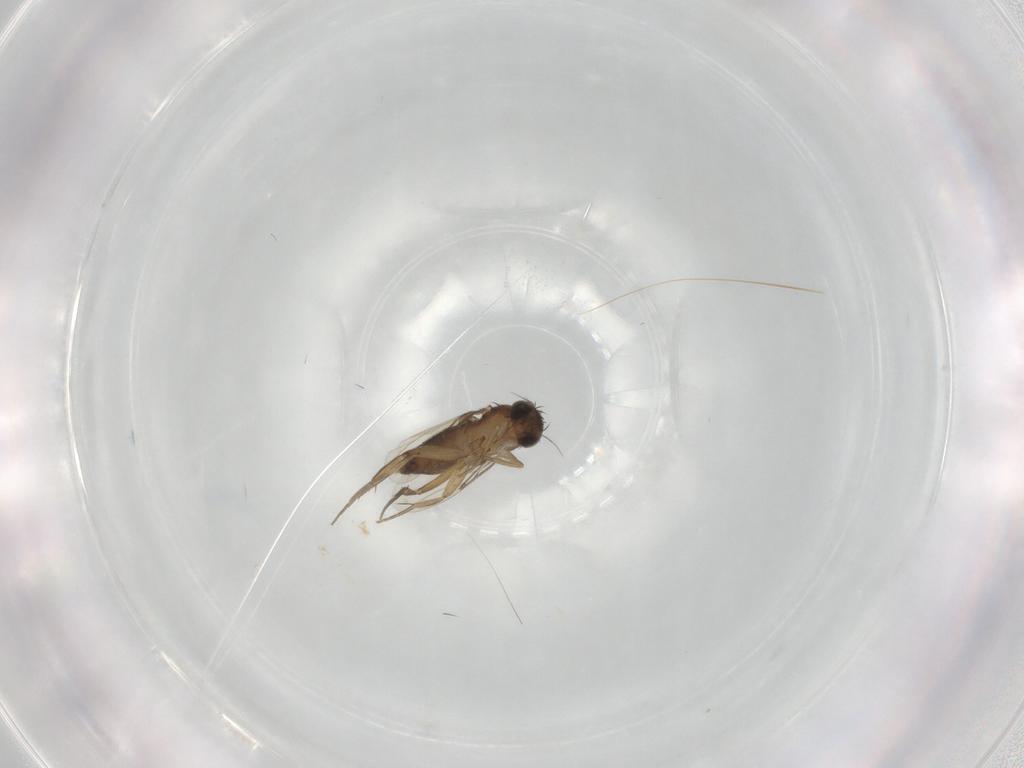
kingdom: Animalia
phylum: Arthropoda
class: Insecta
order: Diptera
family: Phoridae
